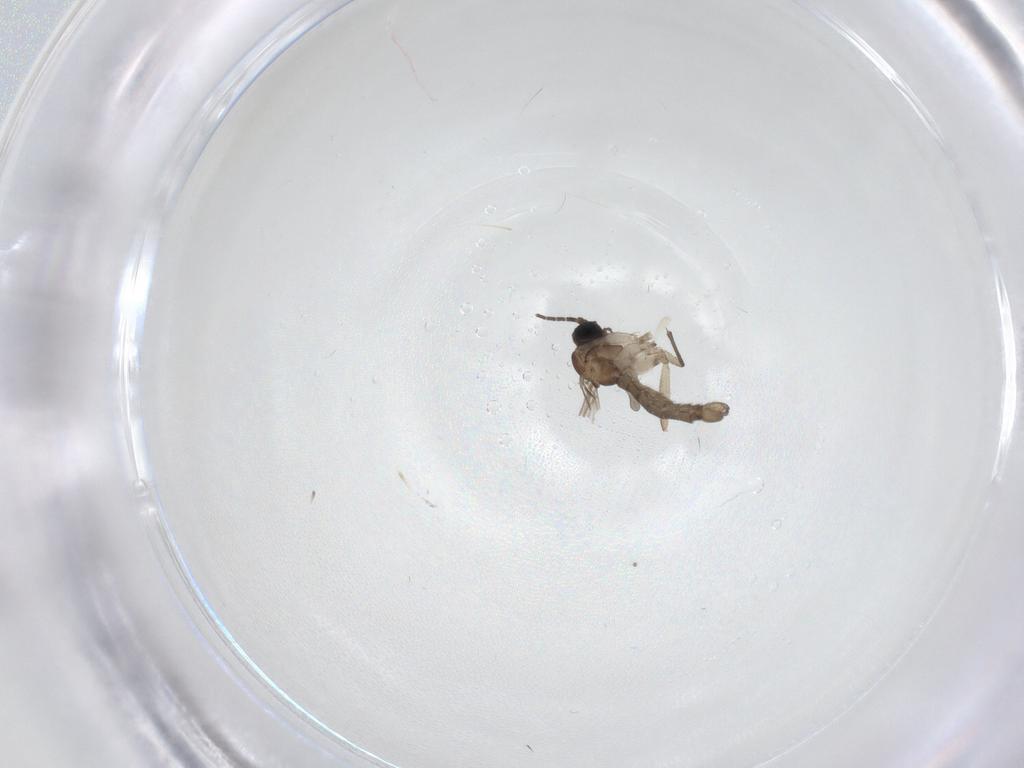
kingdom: Animalia
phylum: Arthropoda
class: Insecta
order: Diptera
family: Sciaridae
